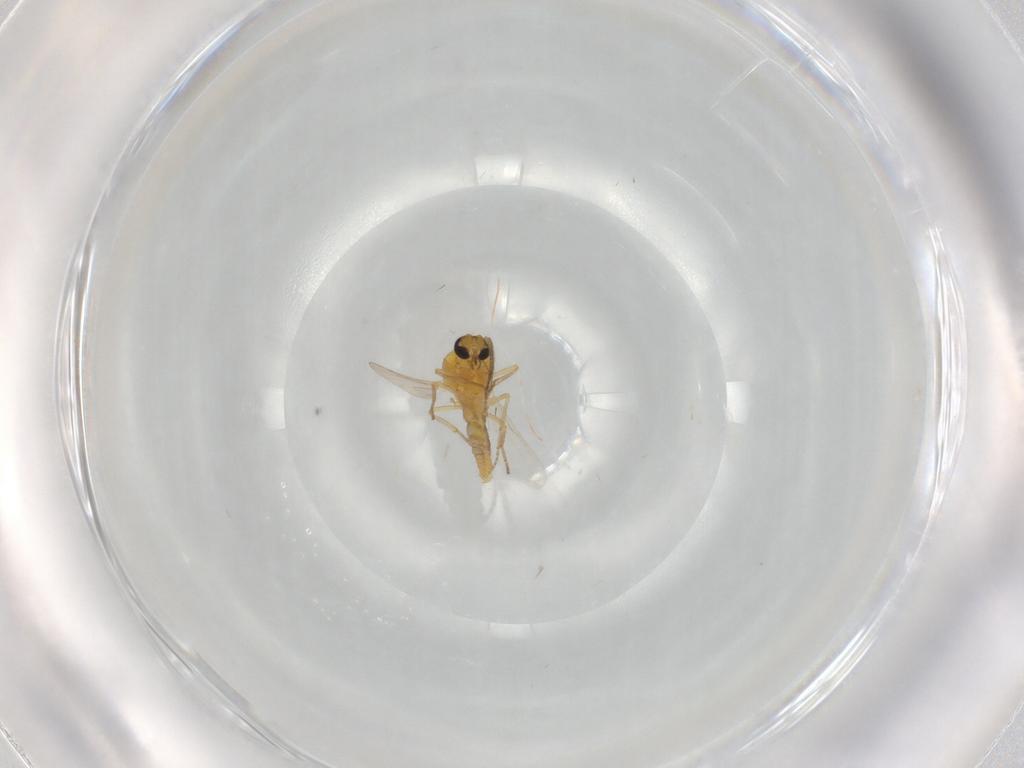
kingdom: Animalia
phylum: Arthropoda
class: Insecta
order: Diptera
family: Ceratopogonidae
